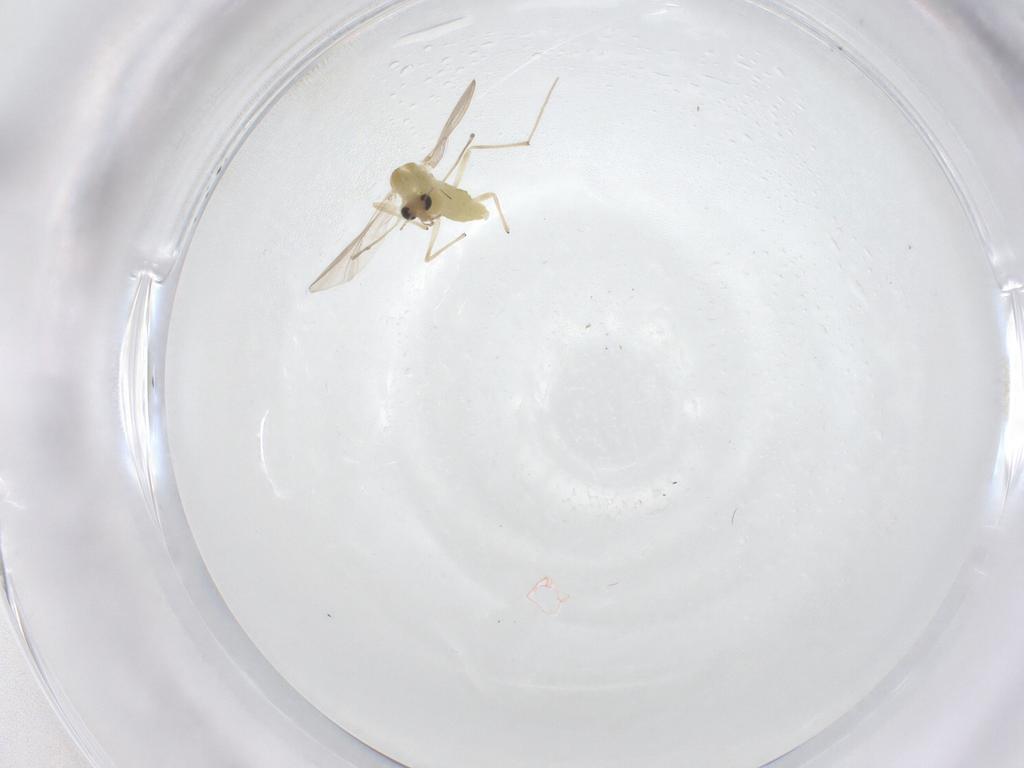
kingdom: Animalia
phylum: Arthropoda
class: Insecta
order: Diptera
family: Chironomidae
